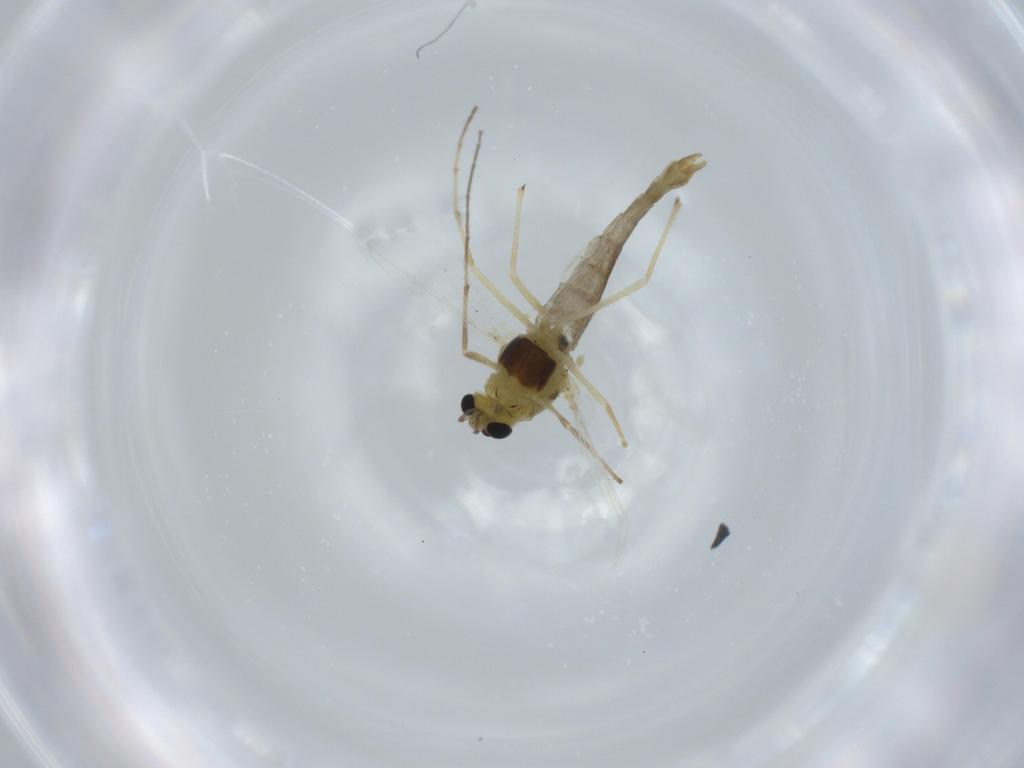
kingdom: Animalia
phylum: Arthropoda
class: Insecta
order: Diptera
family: Chironomidae
